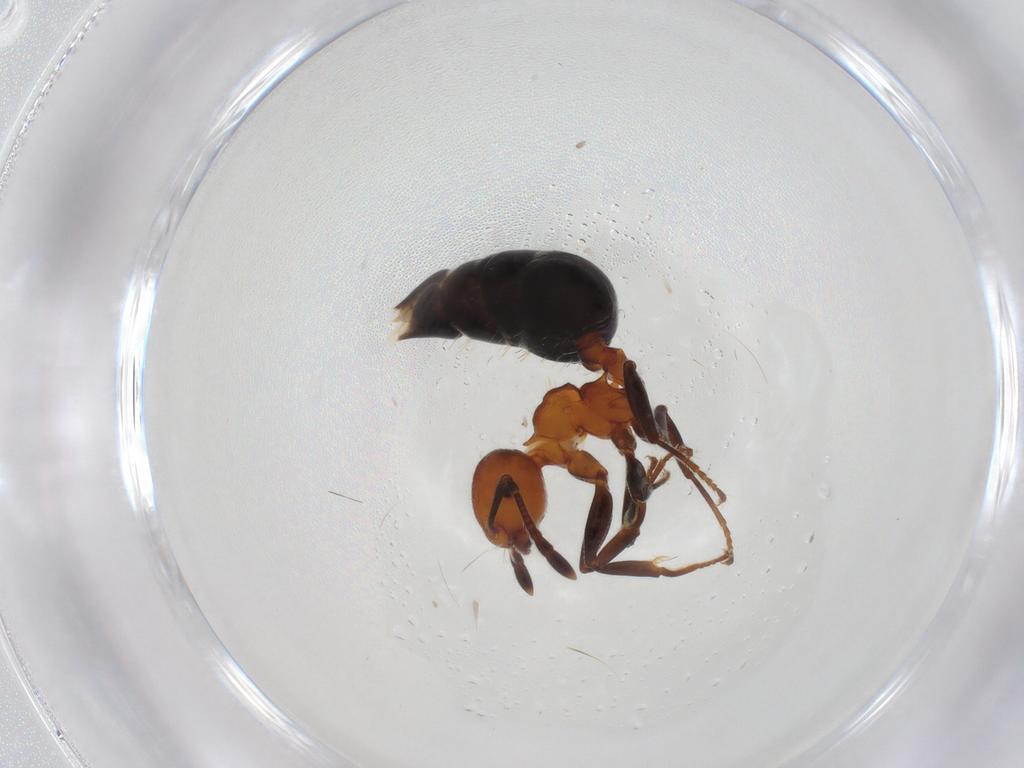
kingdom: Animalia
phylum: Arthropoda
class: Insecta
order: Hymenoptera
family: Formicidae
